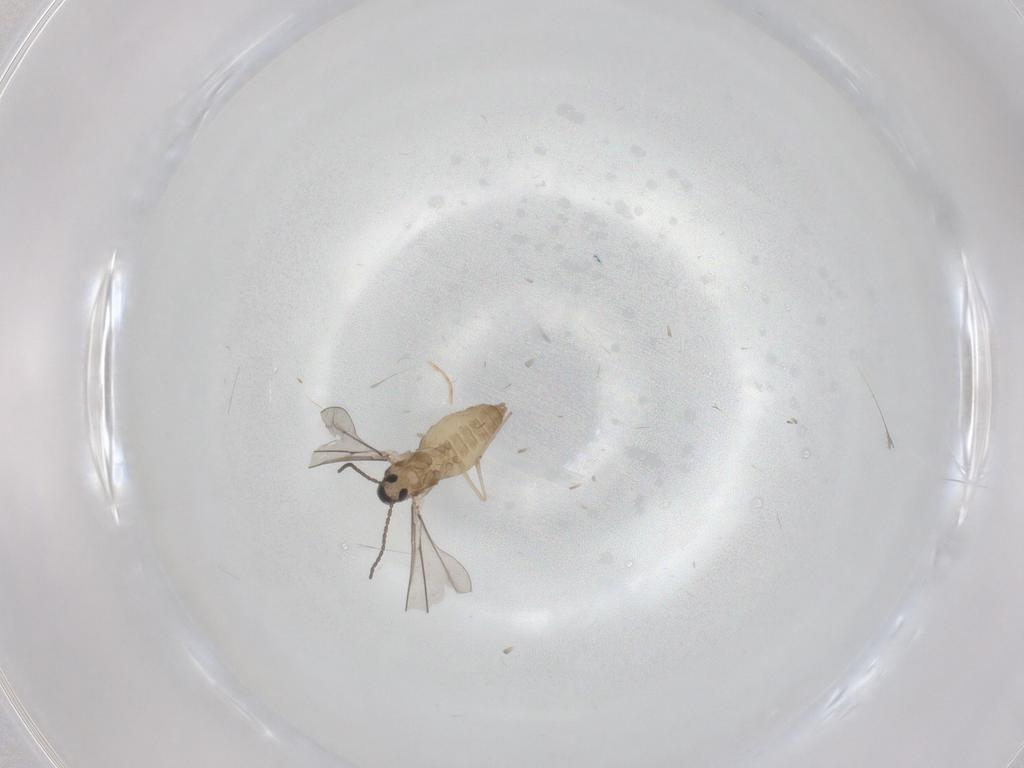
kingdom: Animalia
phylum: Arthropoda
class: Insecta
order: Diptera
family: Cecidomyiidae
